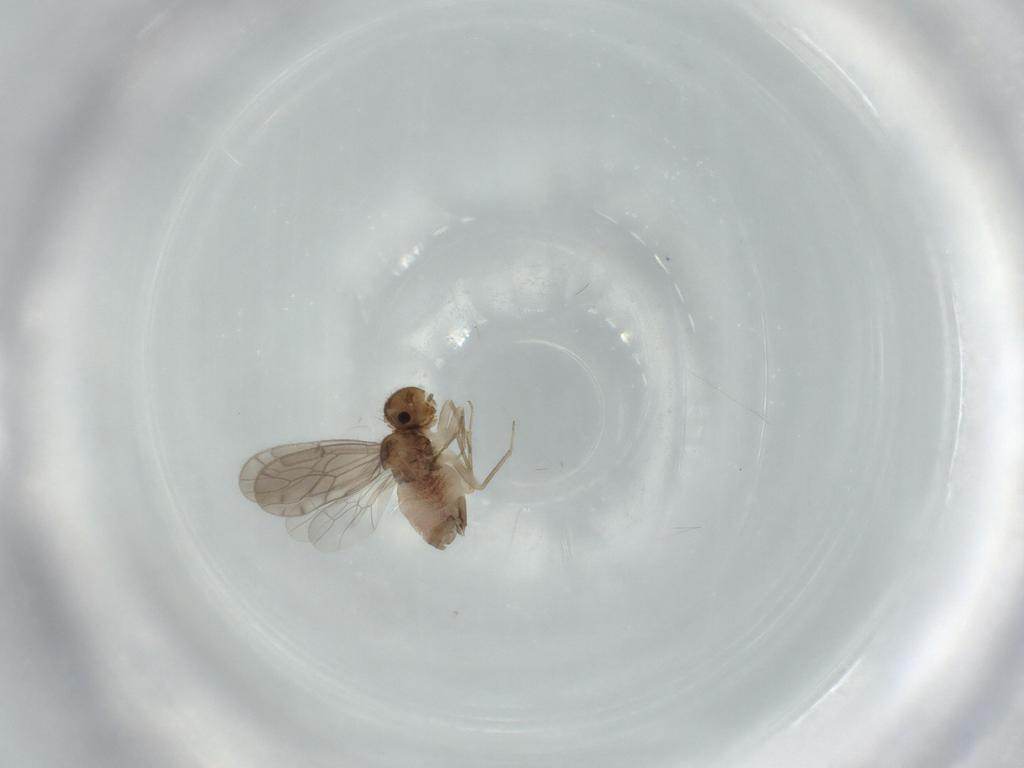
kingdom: Animalia
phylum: Arthropoda
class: Insecta
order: Psocodea
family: Ectopsocidae
